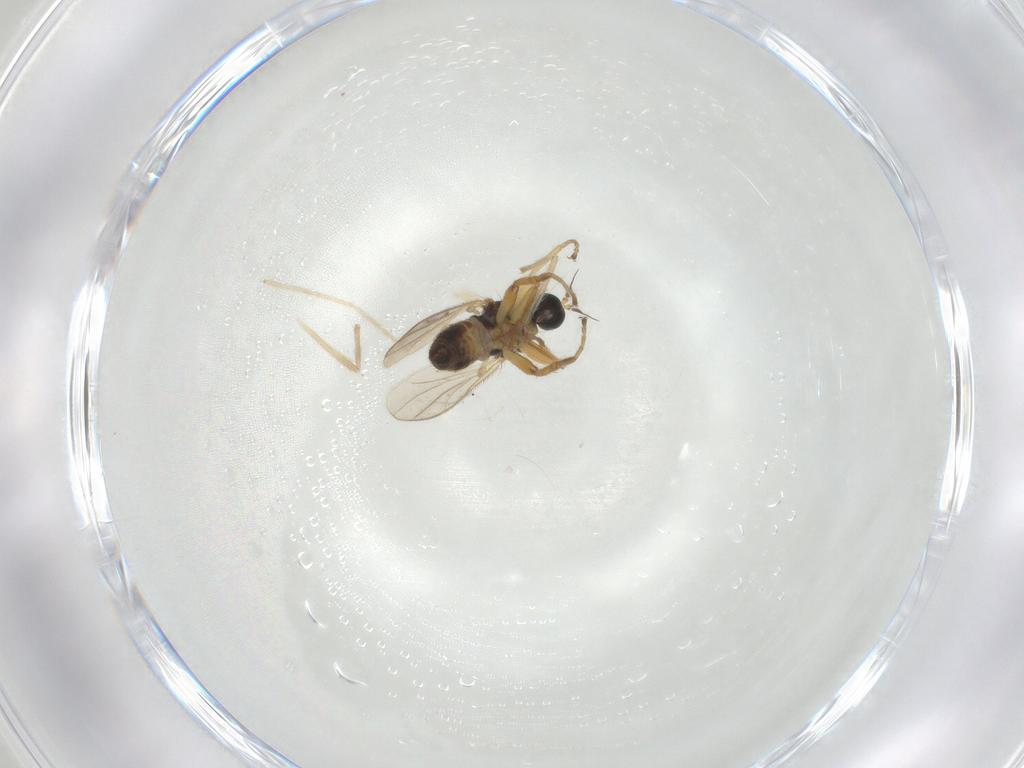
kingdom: Animalia
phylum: Arthropoda
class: Insecta
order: Diptera
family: Hybotidae
